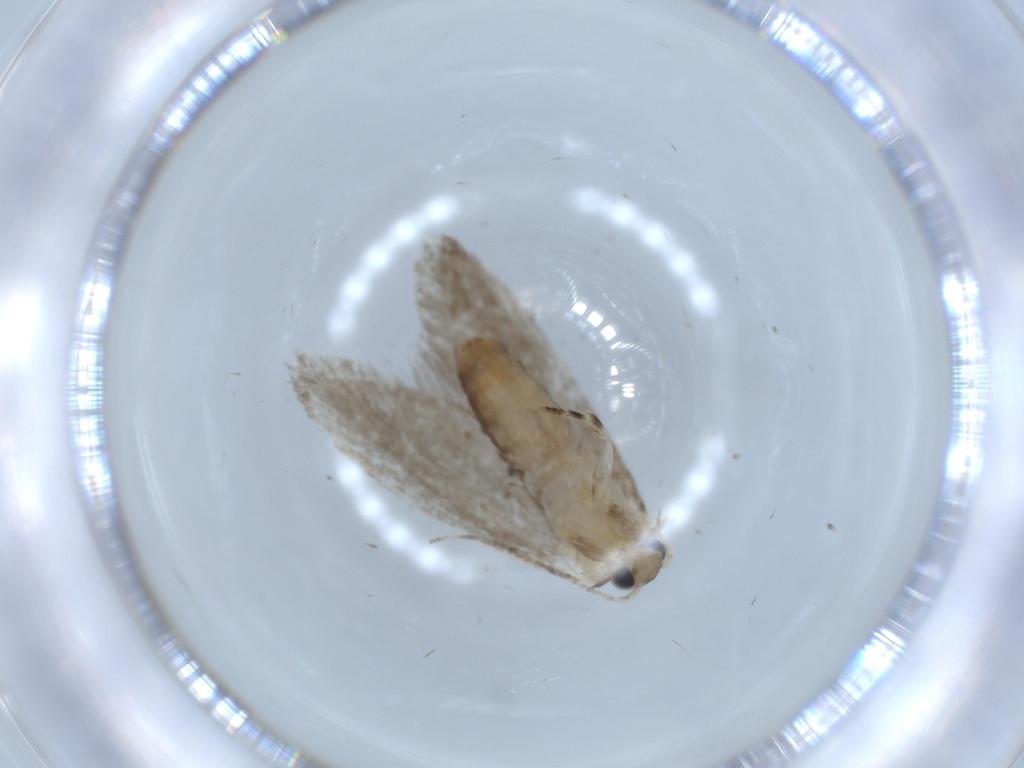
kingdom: Animalia
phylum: Arthropoda
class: Insecta
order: Lepidoptera
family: Tineidae
